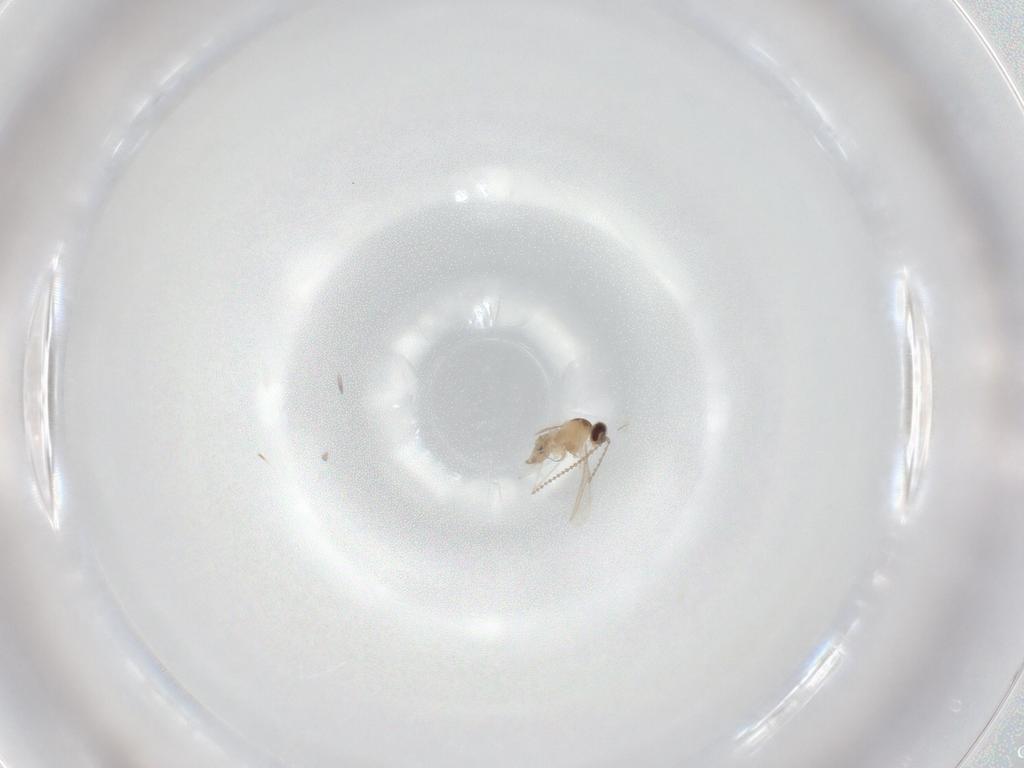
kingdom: Animalia
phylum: Arthropoda
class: Insecta
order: Diptera
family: Cecidomyiidae
